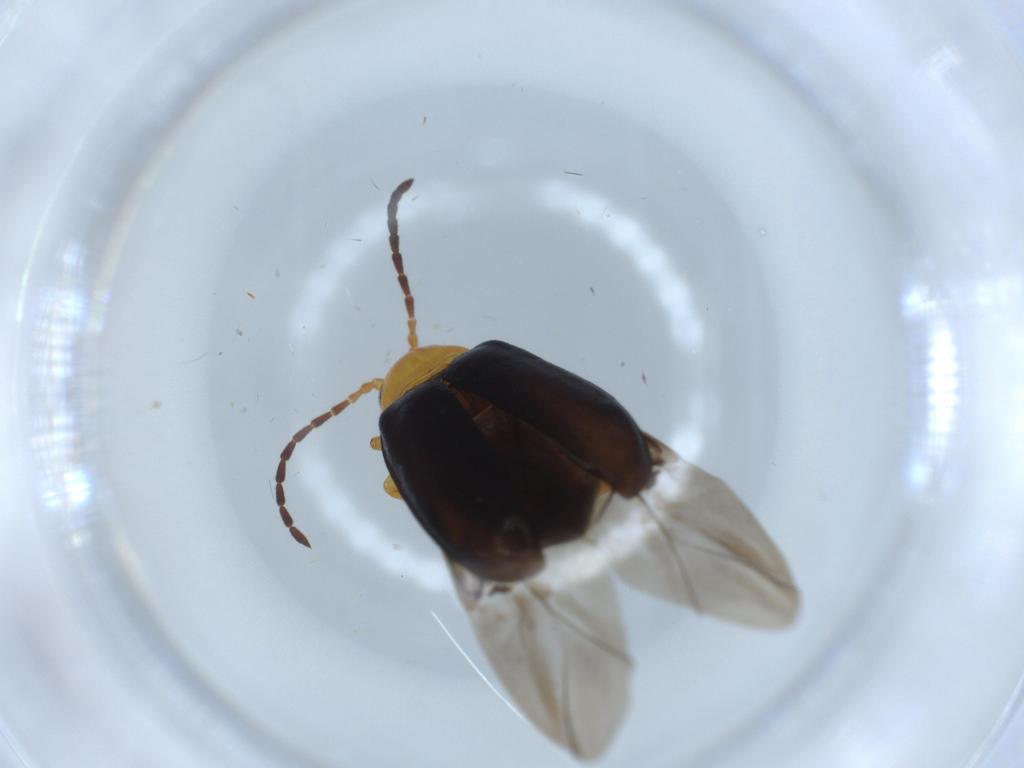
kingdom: Animalia
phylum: Arthropoda
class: Insecta
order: Coleoptera
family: Chrysomelidae
